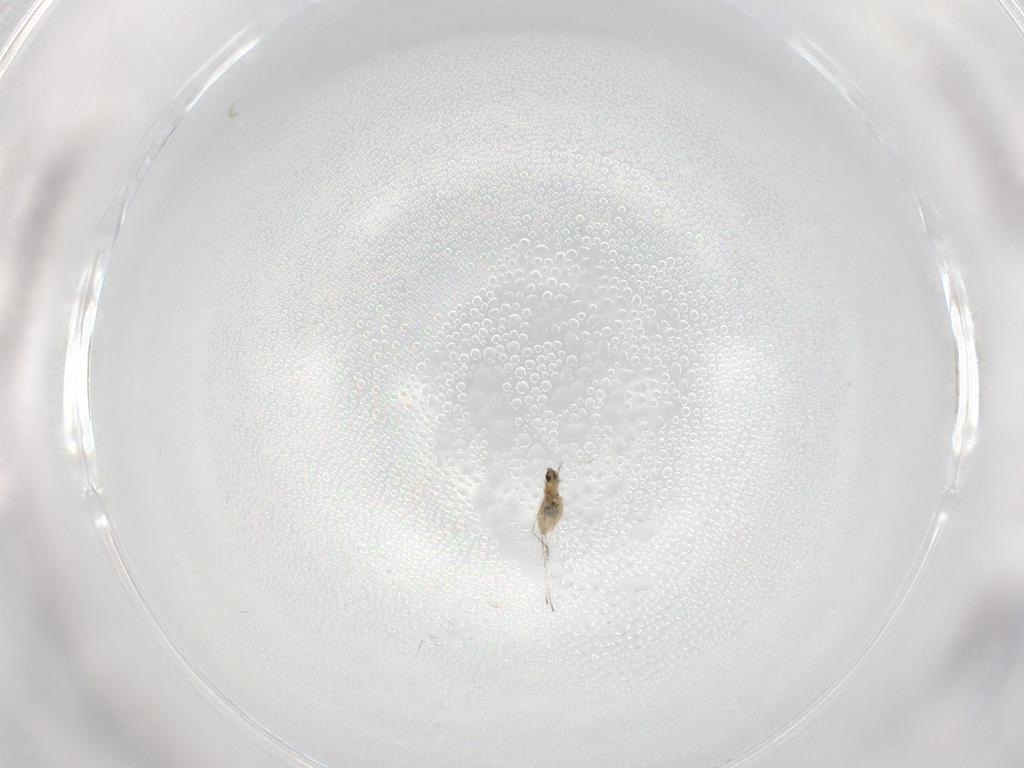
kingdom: Animalia
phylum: Arthropoda
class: Insecta
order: Diptera
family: Cecidomyiidae
